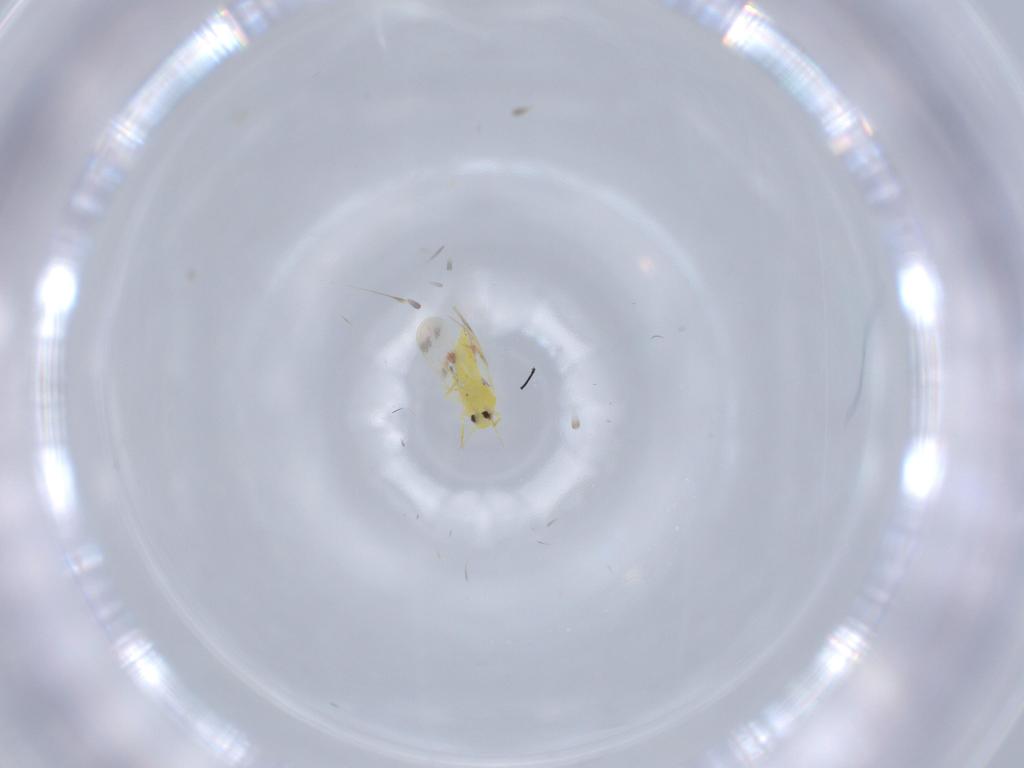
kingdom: Animalia
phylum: Arthropoda
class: Insecta
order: Hemiptera
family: Aleyrodidae
